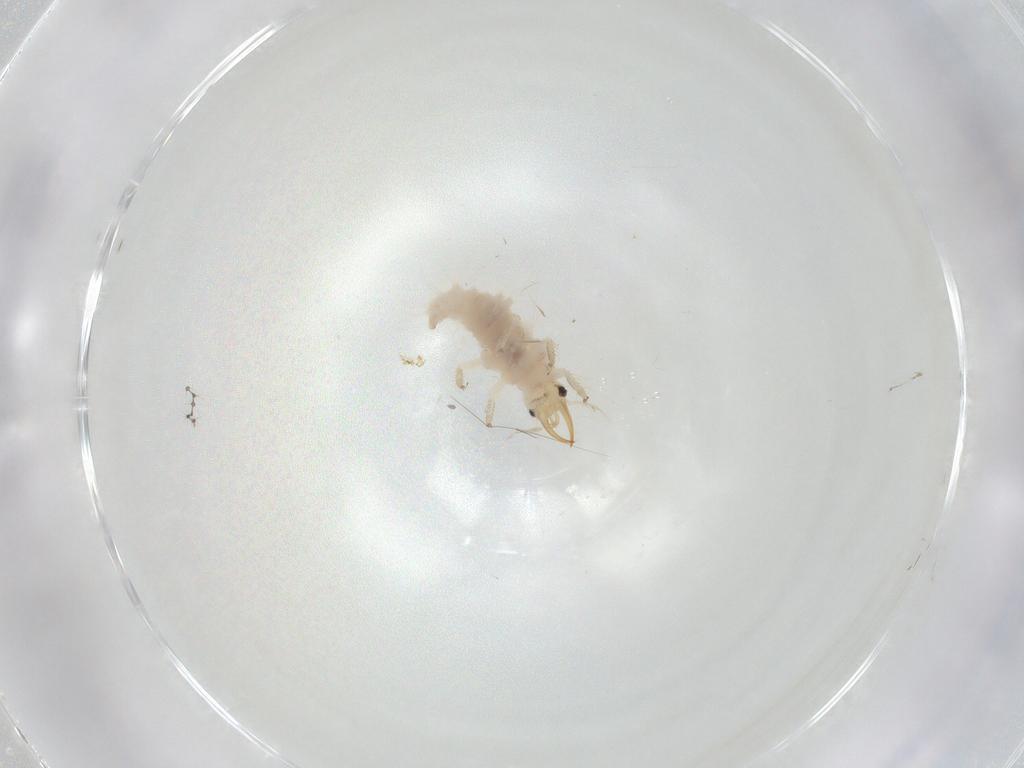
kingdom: Animalia
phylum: Arthropoda
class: Insecta
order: Neuroptera
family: Chrysopidae
